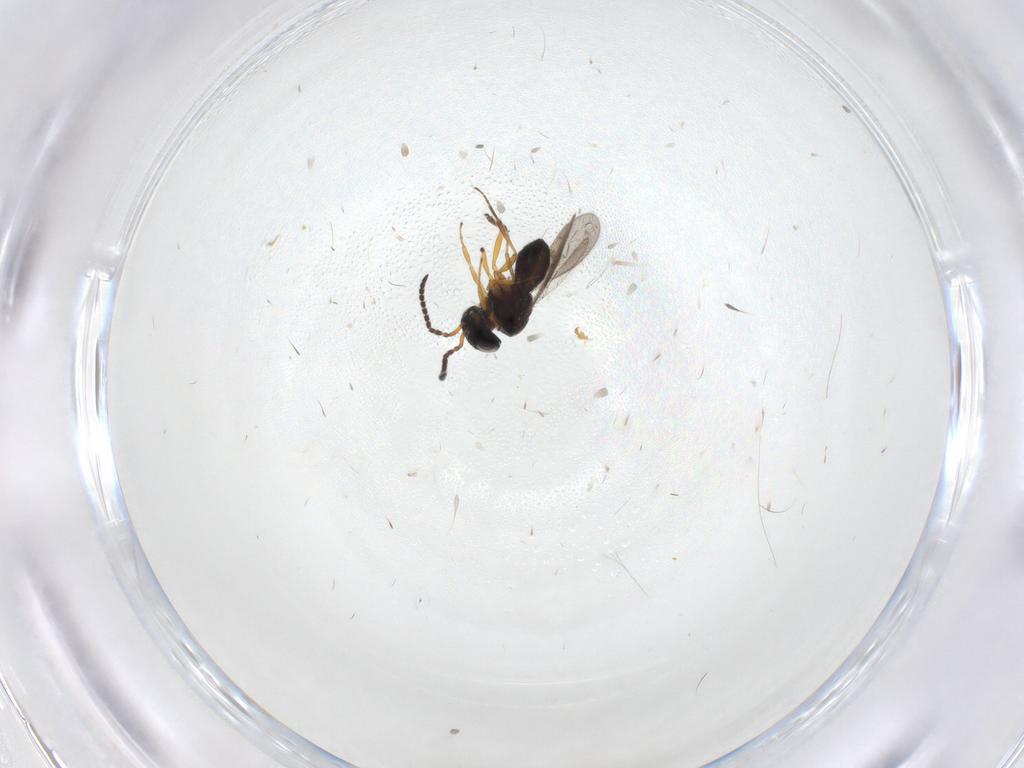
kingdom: Animalia
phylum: Arthropoda
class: Insecta
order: Hymenoptera
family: Scelionidae
